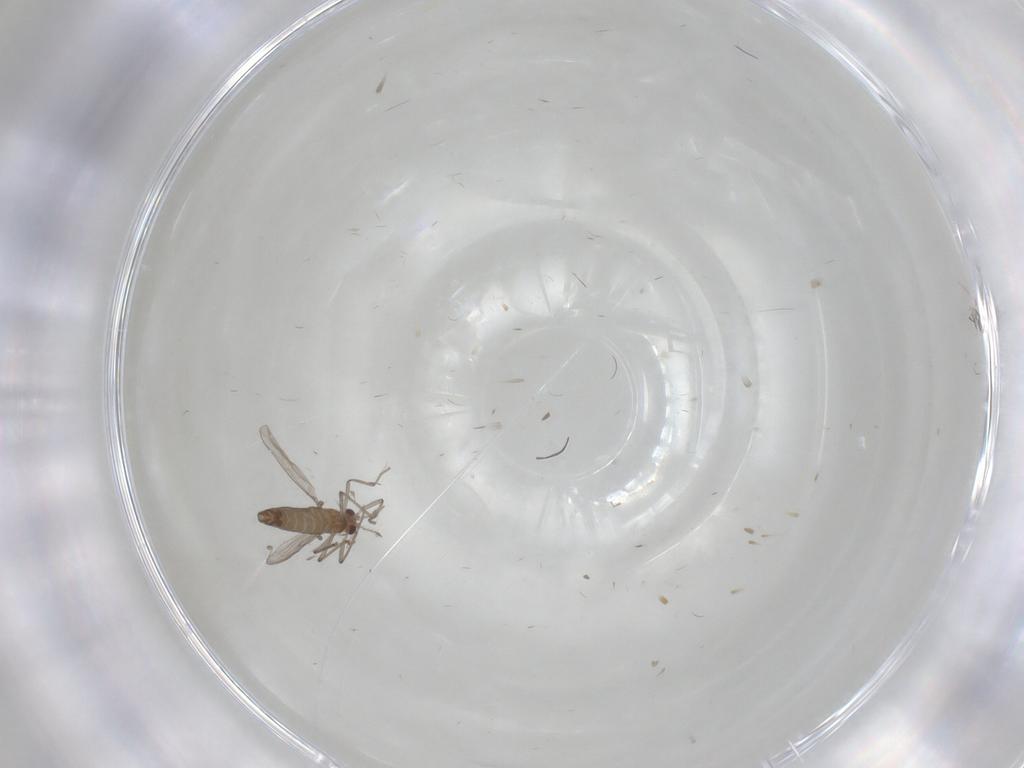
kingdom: Animalia
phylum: Arthropoda
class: Insecta
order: Diptera
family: Chironomidae
